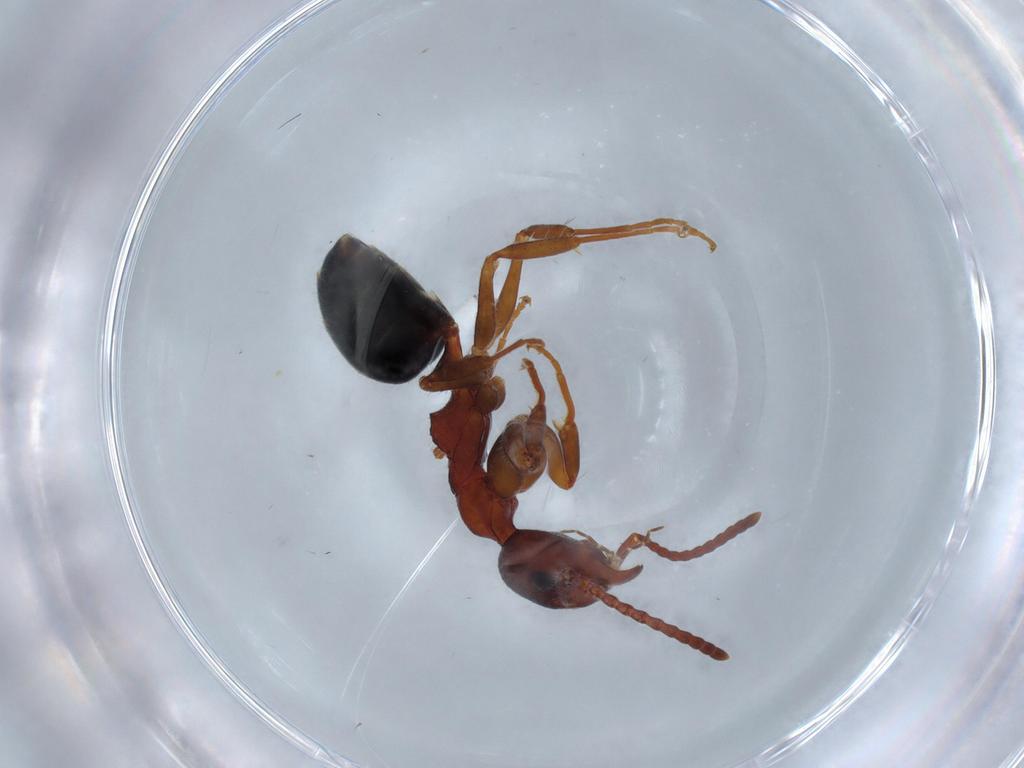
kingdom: Animalia
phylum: Arthropoda
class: Insecta
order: Hymenoptera
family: Formicidae
